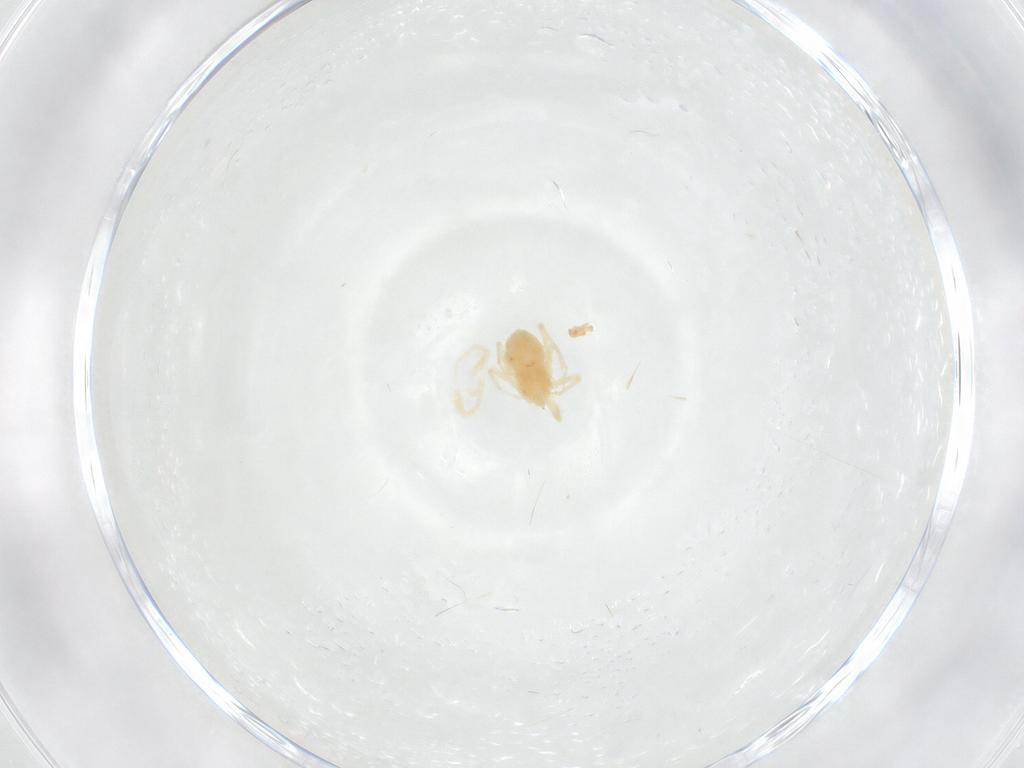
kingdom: Animalia
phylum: Arthropoda
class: Arachnida
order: Trombidiformes
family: Anystidae
